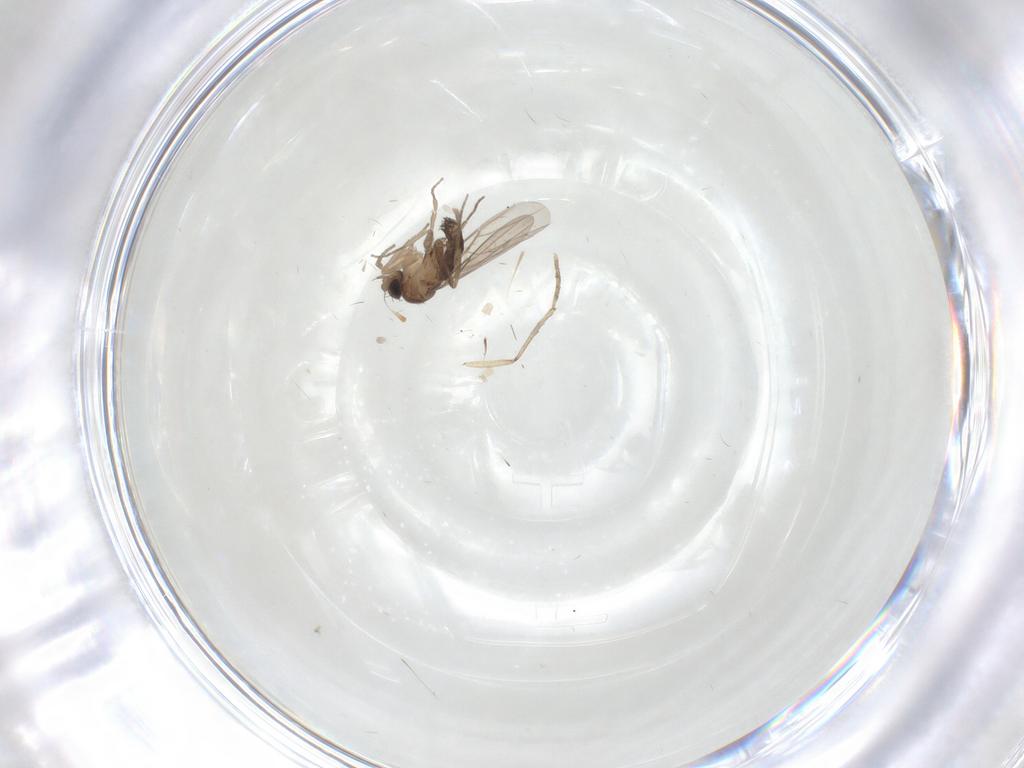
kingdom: Animalia
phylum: Arthropoda
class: Insecta
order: Diptera
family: Phoridae
